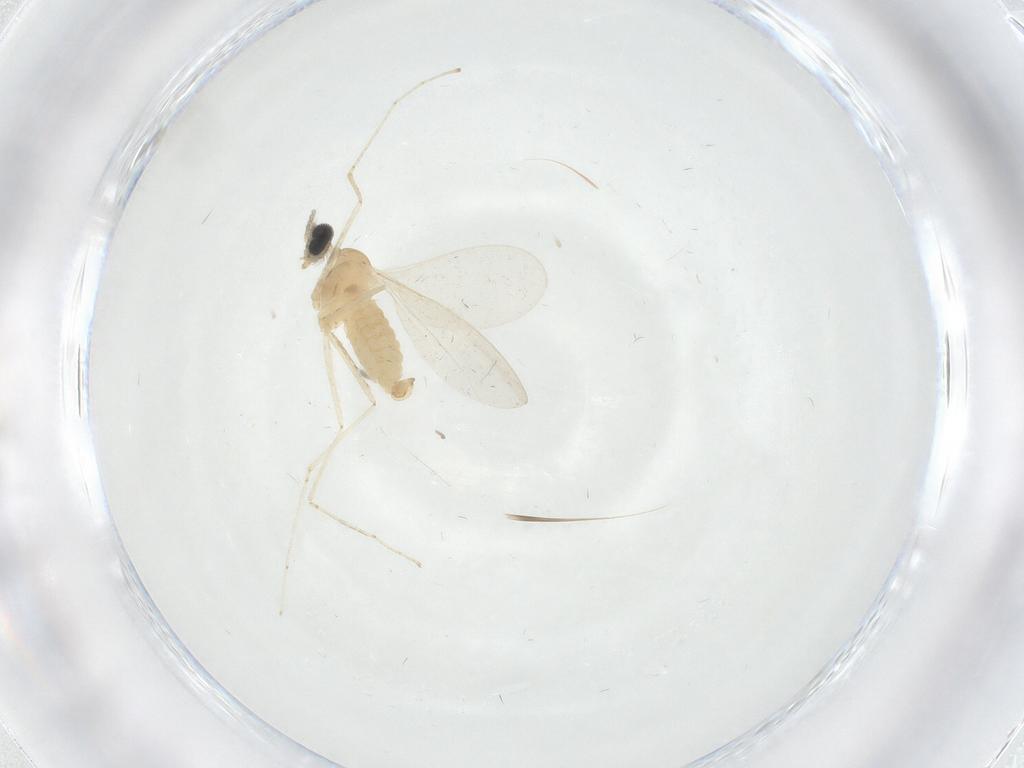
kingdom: Animalia
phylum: Arthropoda
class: Insecta
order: Diptera
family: Cecidomyiidae
